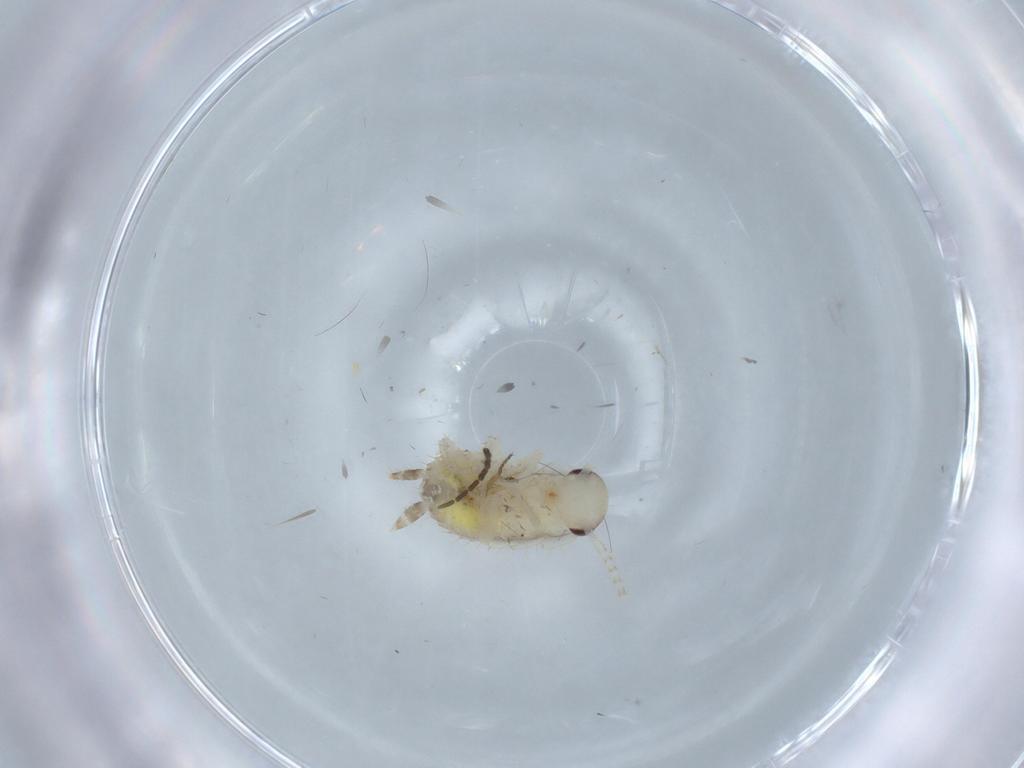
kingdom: Animalia
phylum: Arthropoda
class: Insecta
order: Blattodea
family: Ectobiidae
